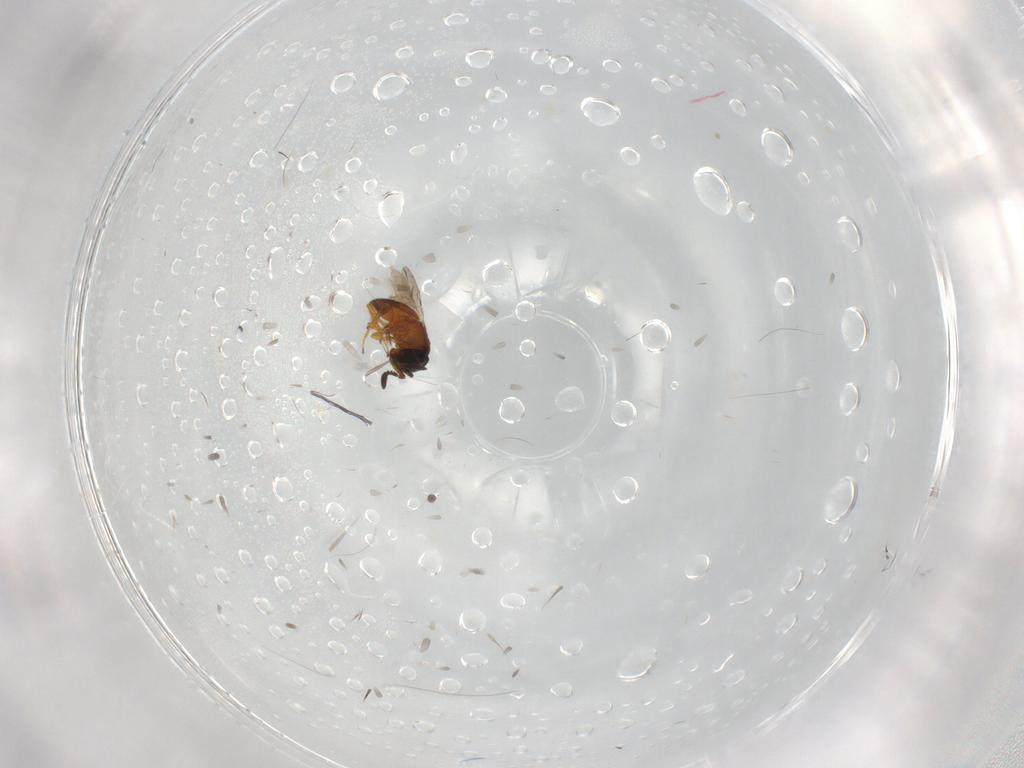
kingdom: Animalia
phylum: Arthropoda
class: Insecta
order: Hymenoptera
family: Scelionidae
